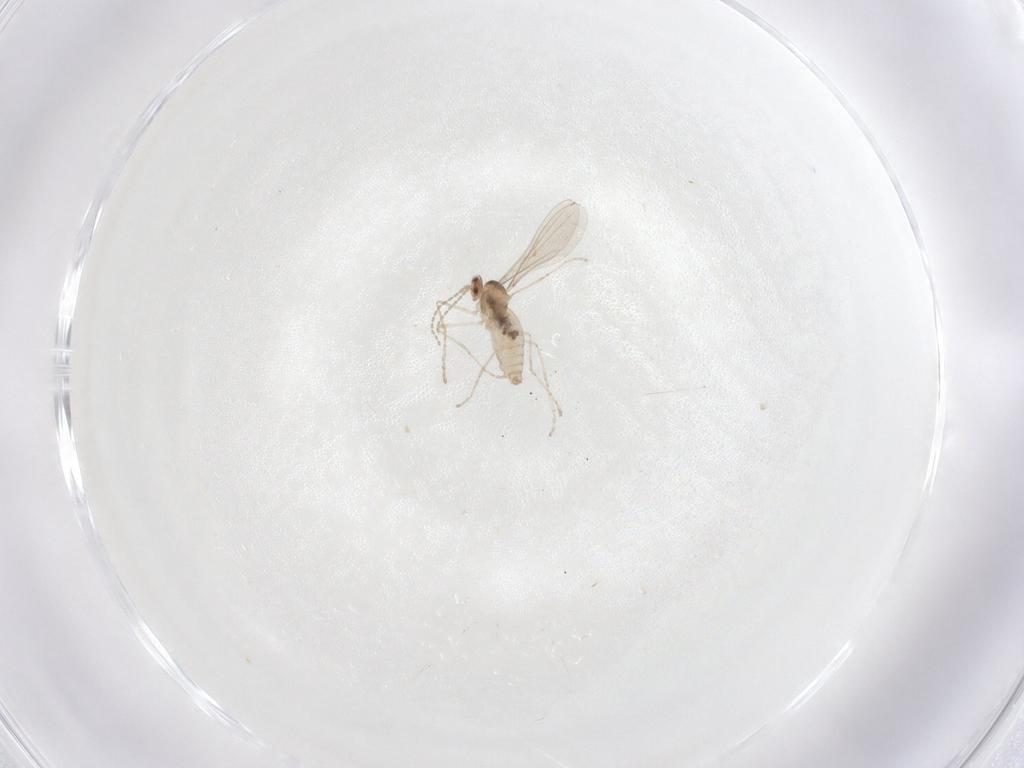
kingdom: Animalia
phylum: Arthropoda
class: Insecta
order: Diptera
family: Cecidomyiidae
